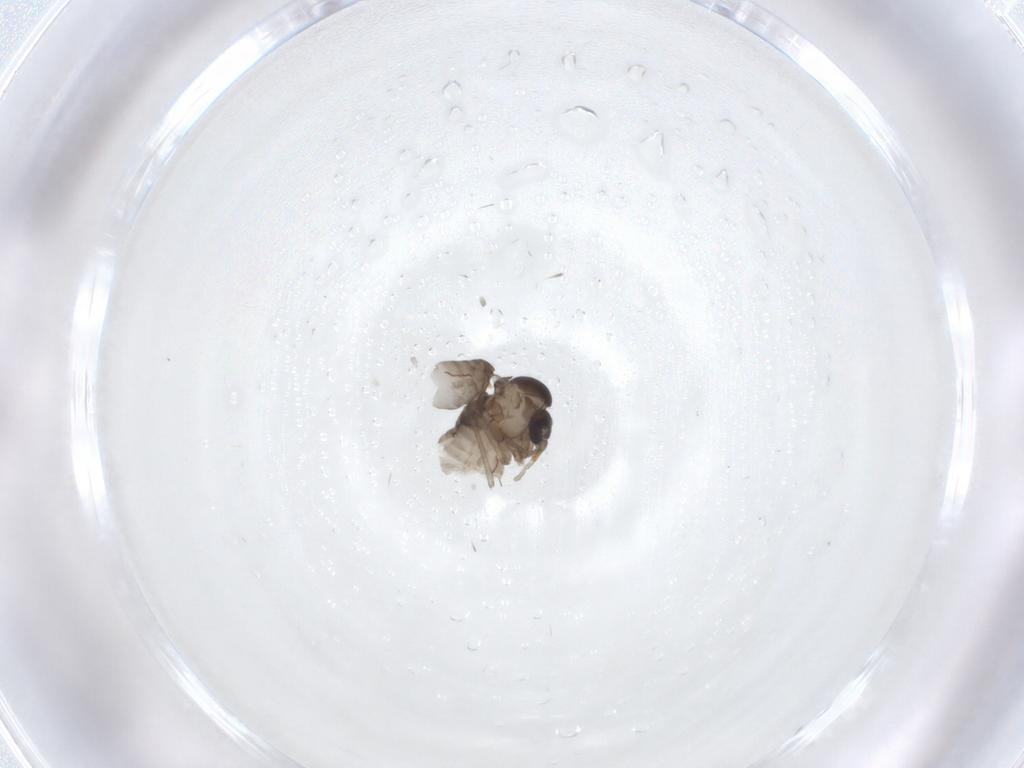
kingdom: Animalia
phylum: Arthropoda
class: Insecta
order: Diptera
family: Psychodidae
